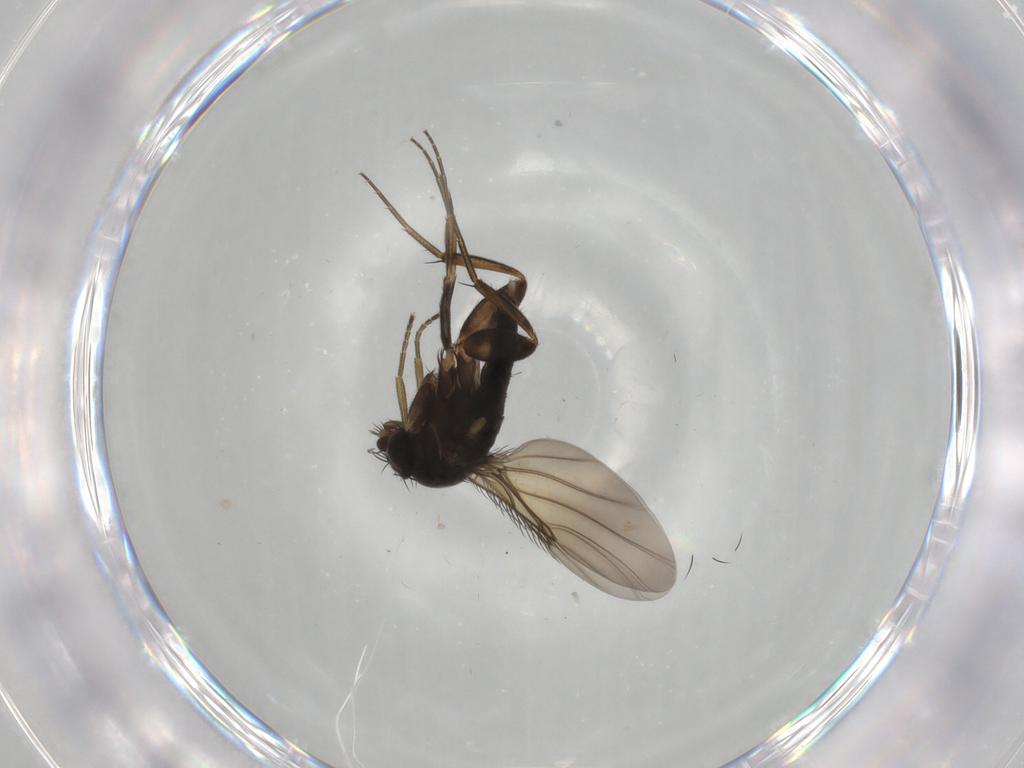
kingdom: Animalia
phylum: Arthropoda
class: Insecta
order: Diptera
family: Phoridae
